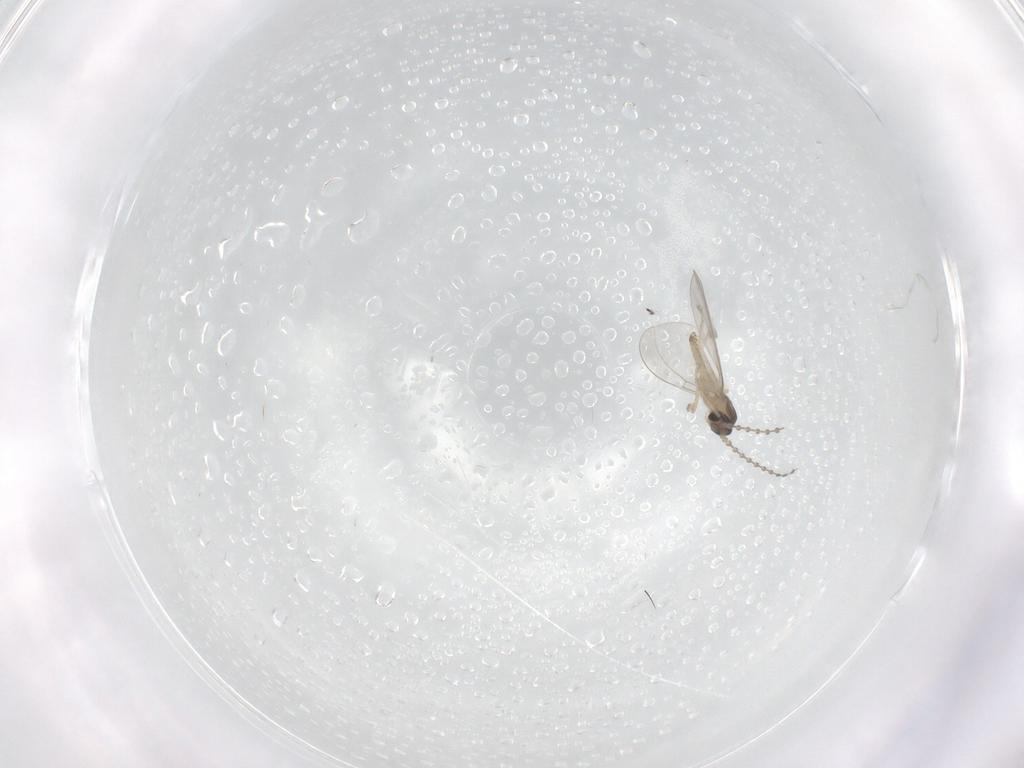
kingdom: Animalia
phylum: Arthropoda
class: Insecta
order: Diptera
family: Cecidomyiidae
